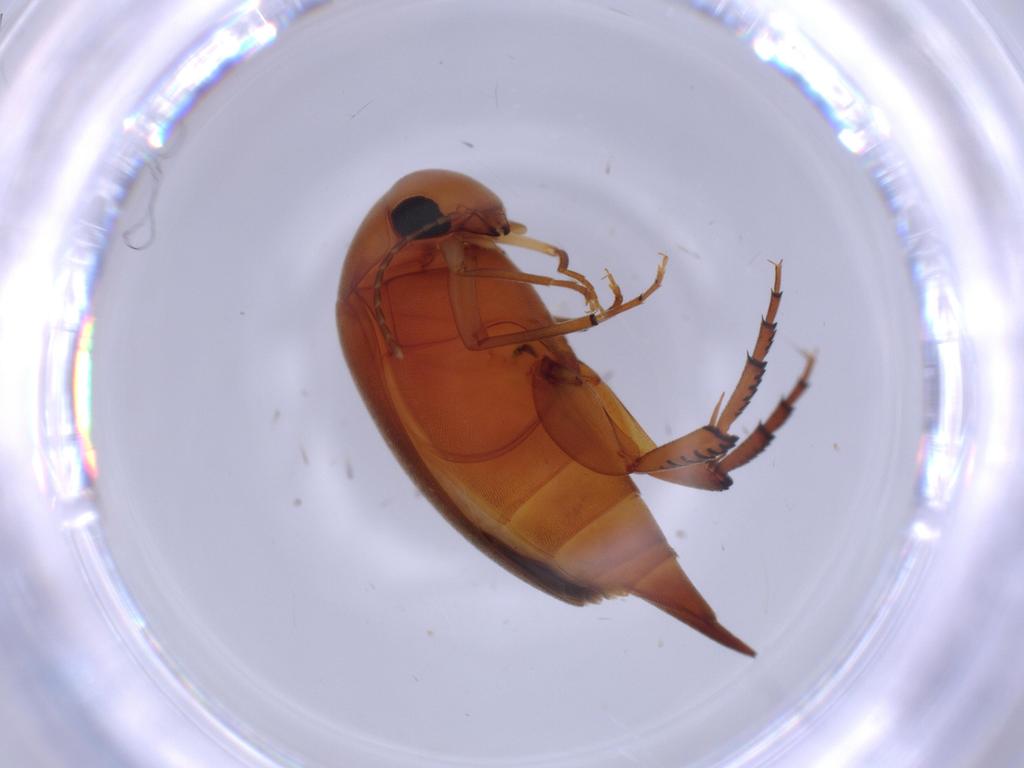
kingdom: Animalia
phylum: Arthropoda
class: Insecta
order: Coleoptera
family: Mordellidae
